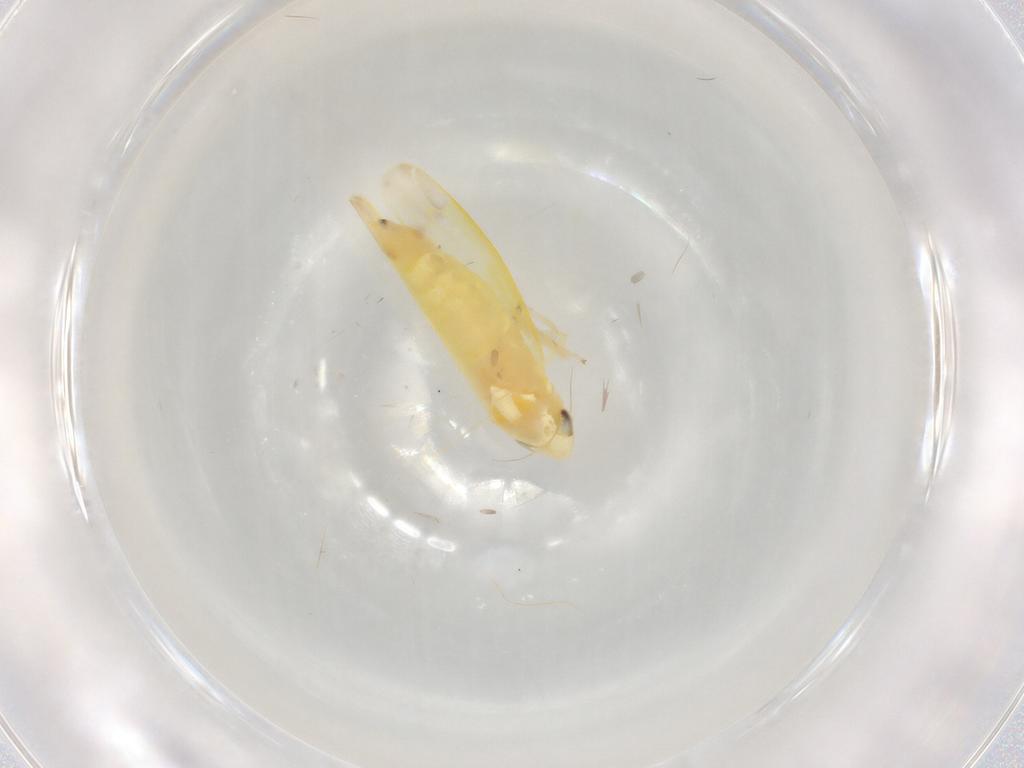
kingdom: Animalia
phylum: Arthropoda
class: Insecta
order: Hemiptera
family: Cicadellidae
